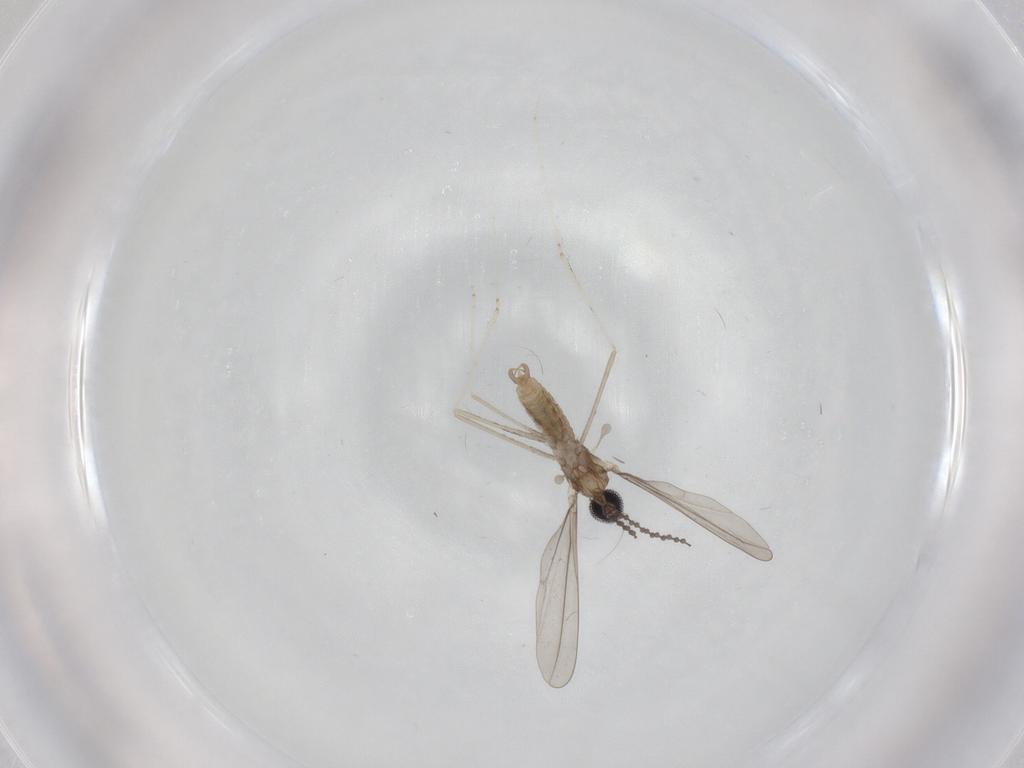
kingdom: Animalia
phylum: Arthropoda
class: Insecta
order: Diptera
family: Cecidomyiidae
